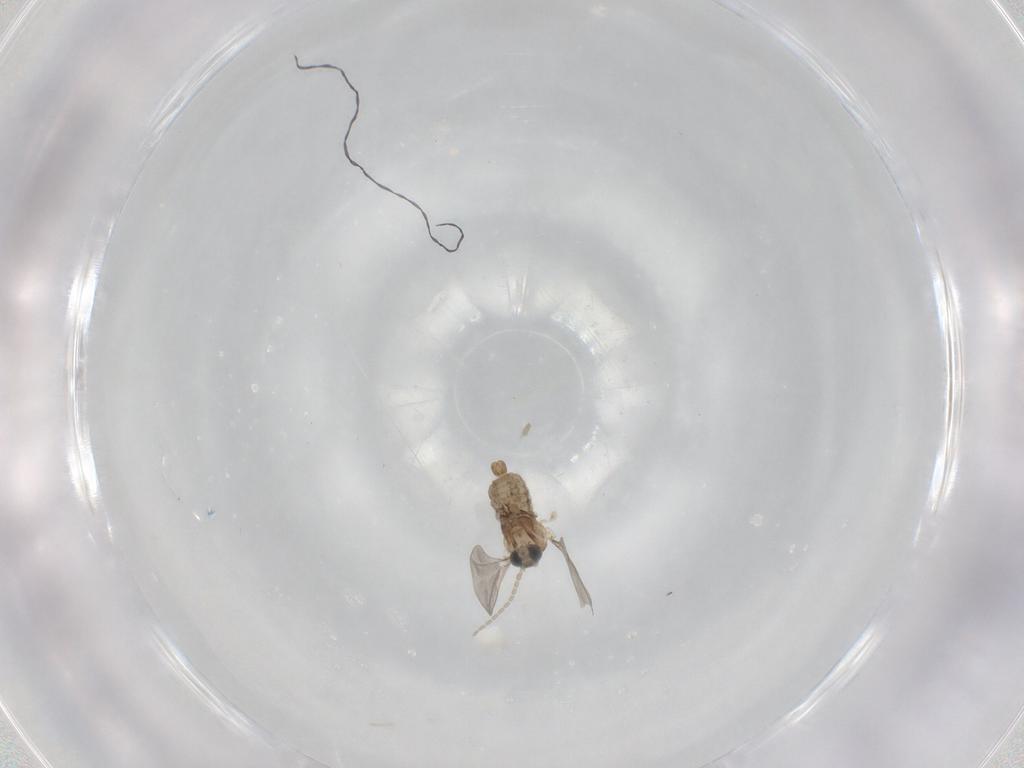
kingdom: Animalia
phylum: Arthropoda
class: Insecta
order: Diptera
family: Cecidomyiidae
